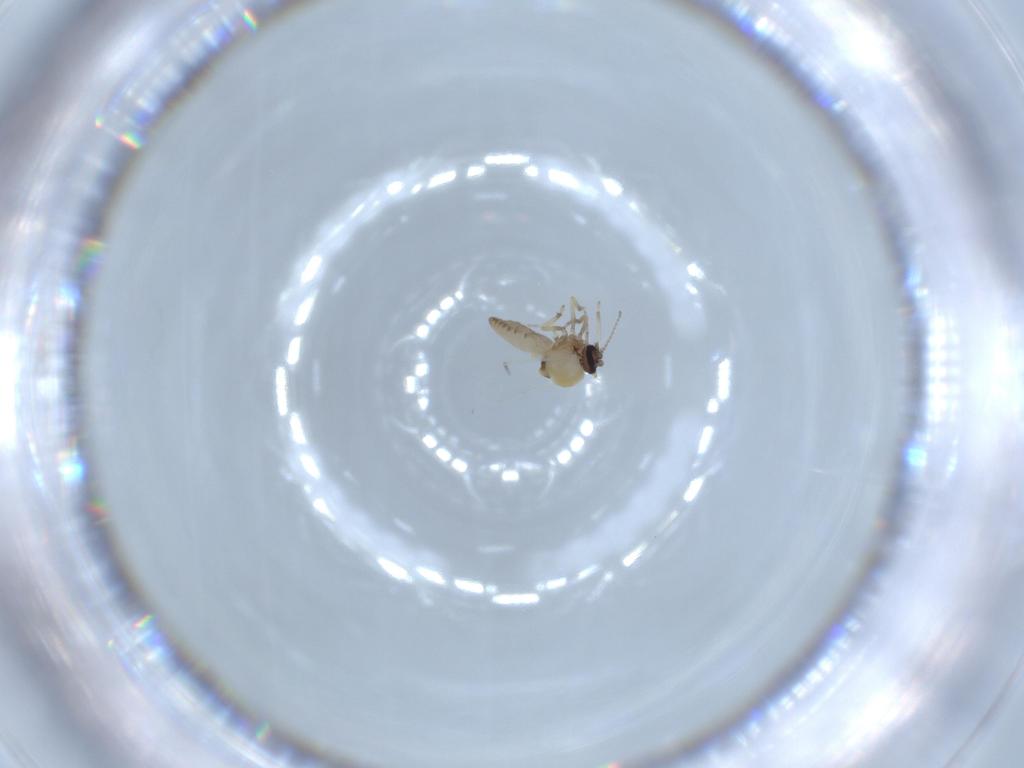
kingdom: Animalia
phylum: Arthropoda
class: Insecta
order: Diptera
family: Ceratopogonidae
